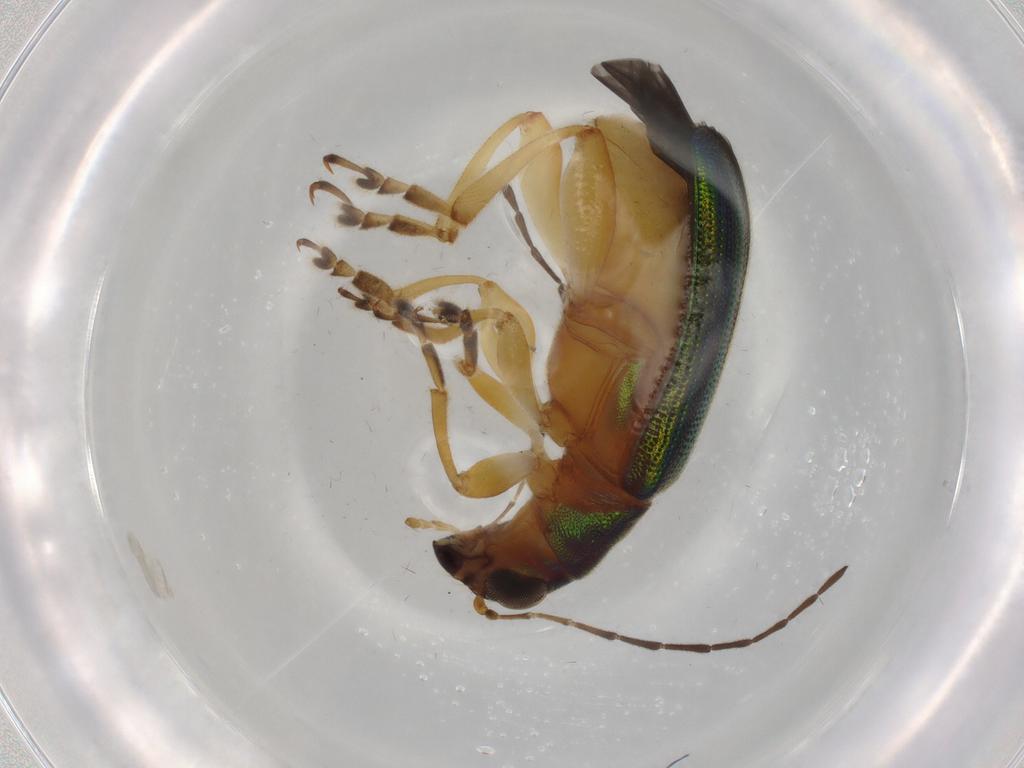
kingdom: Animalia
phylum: Arthropoda
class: Insecta
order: Coleoptera
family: Chrysomelidae
